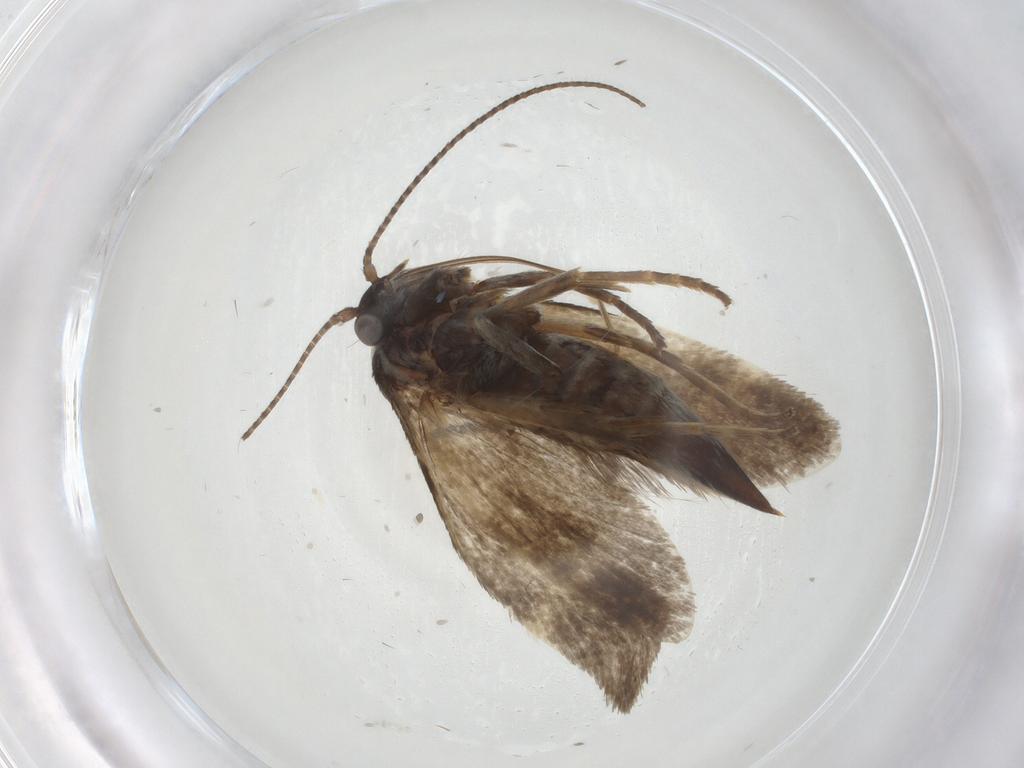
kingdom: Animalia
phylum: Arthropoda
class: Insecta
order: Lepidoptera
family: Adelidae
